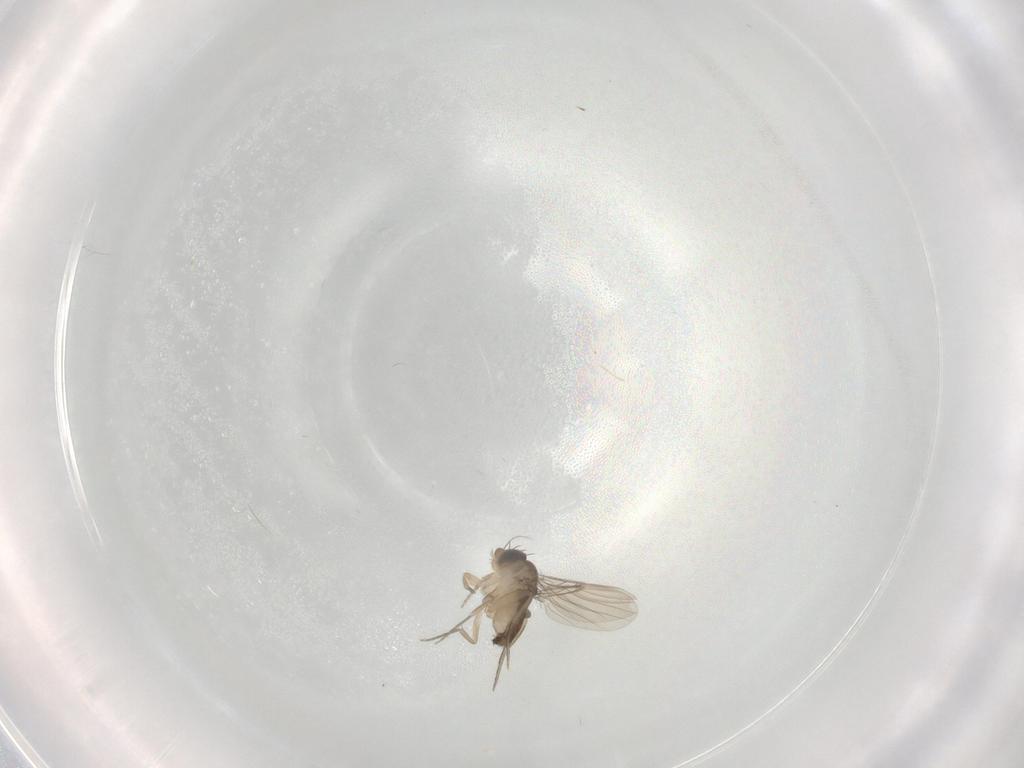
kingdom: Animalia
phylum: Arthropoda
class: Insecta
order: Diptera
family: Phoridae
